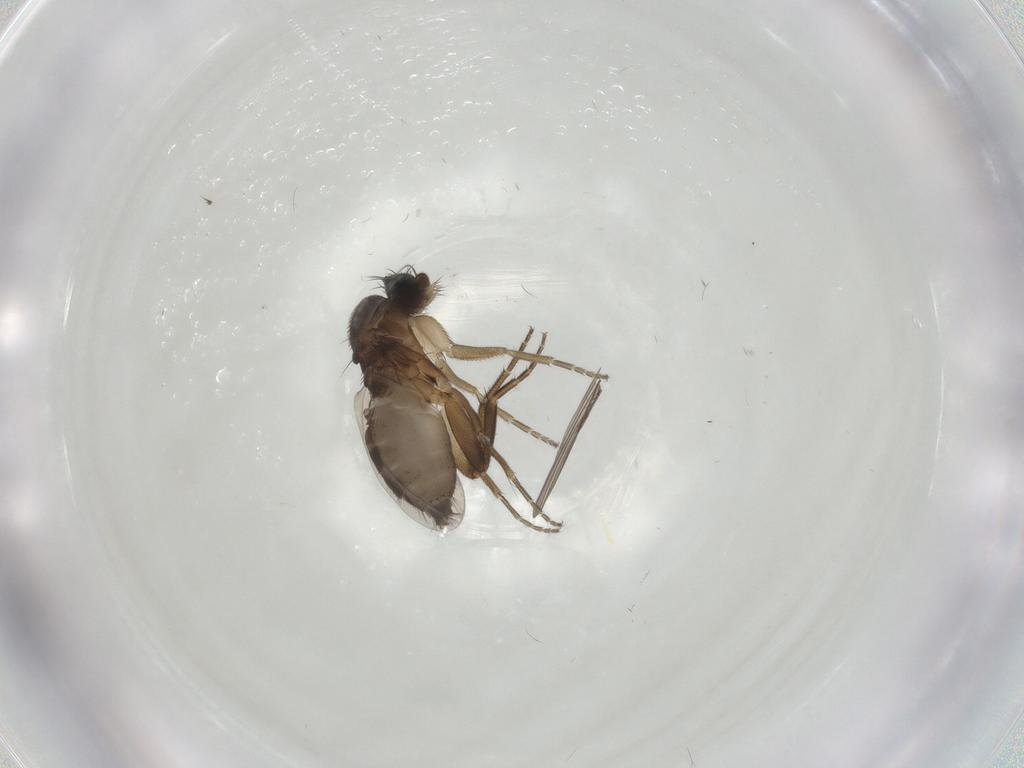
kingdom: Animalia
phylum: Arthropoda
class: Insecta
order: Diptera
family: Phoridae
